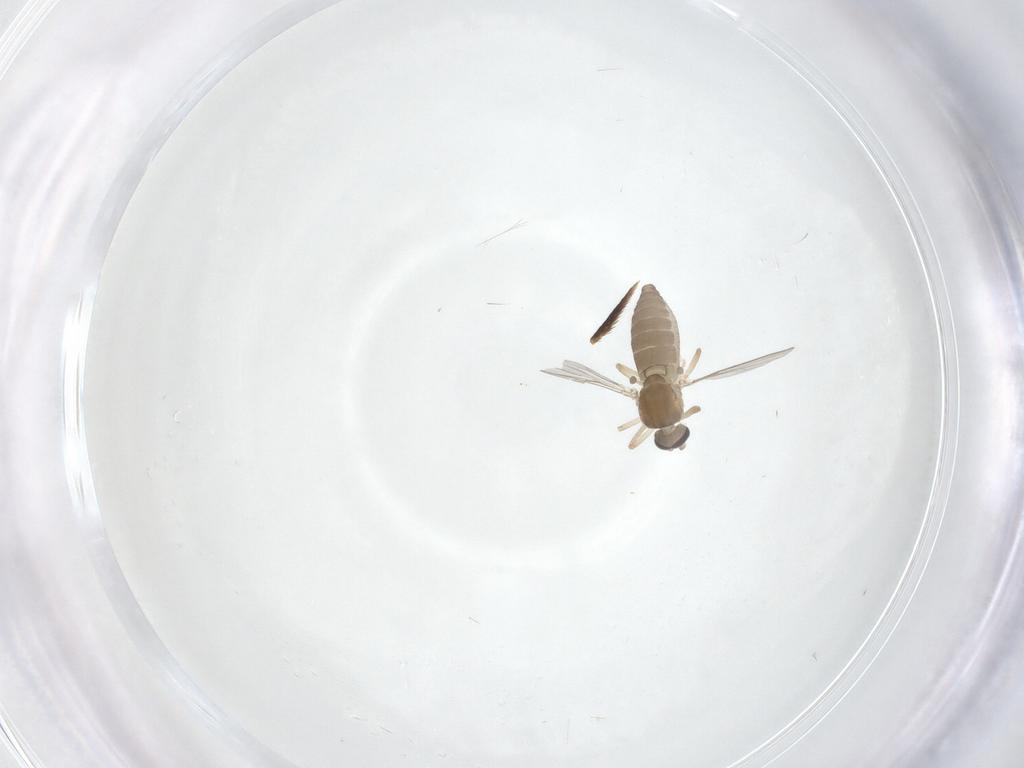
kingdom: Animalia
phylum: Arthropoda
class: Insecta
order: Diptera
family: Ceratopogonidae
